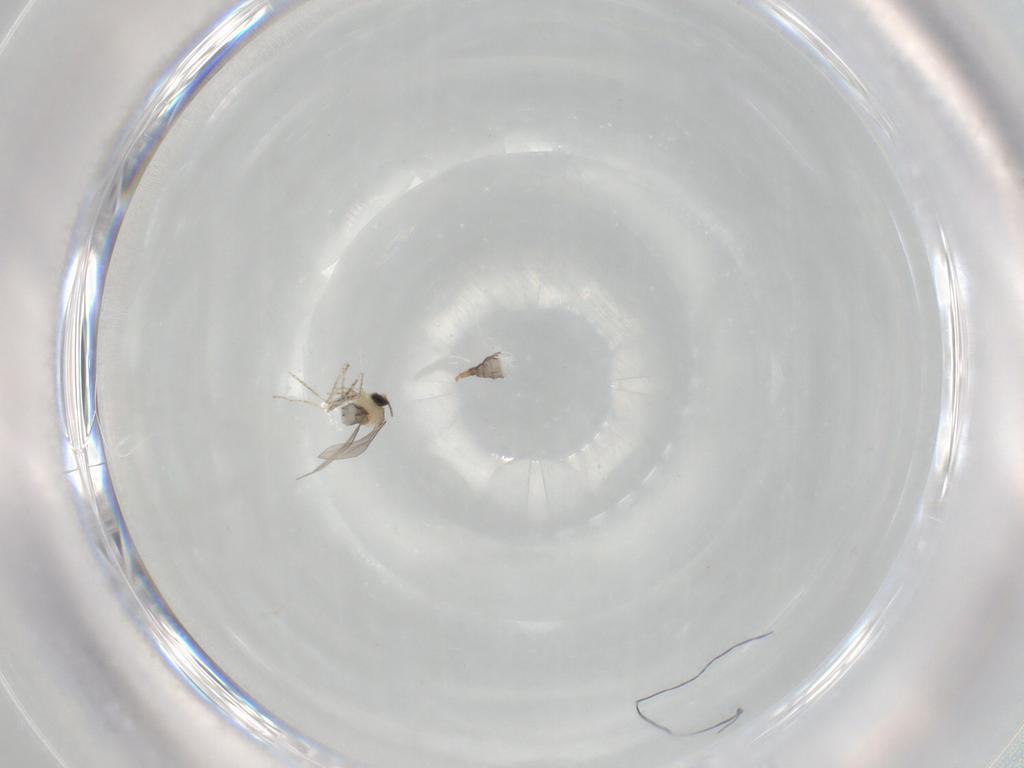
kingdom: Animalia
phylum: Arthropoda
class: Insecta
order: Diptera
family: Cecidomyiidae
